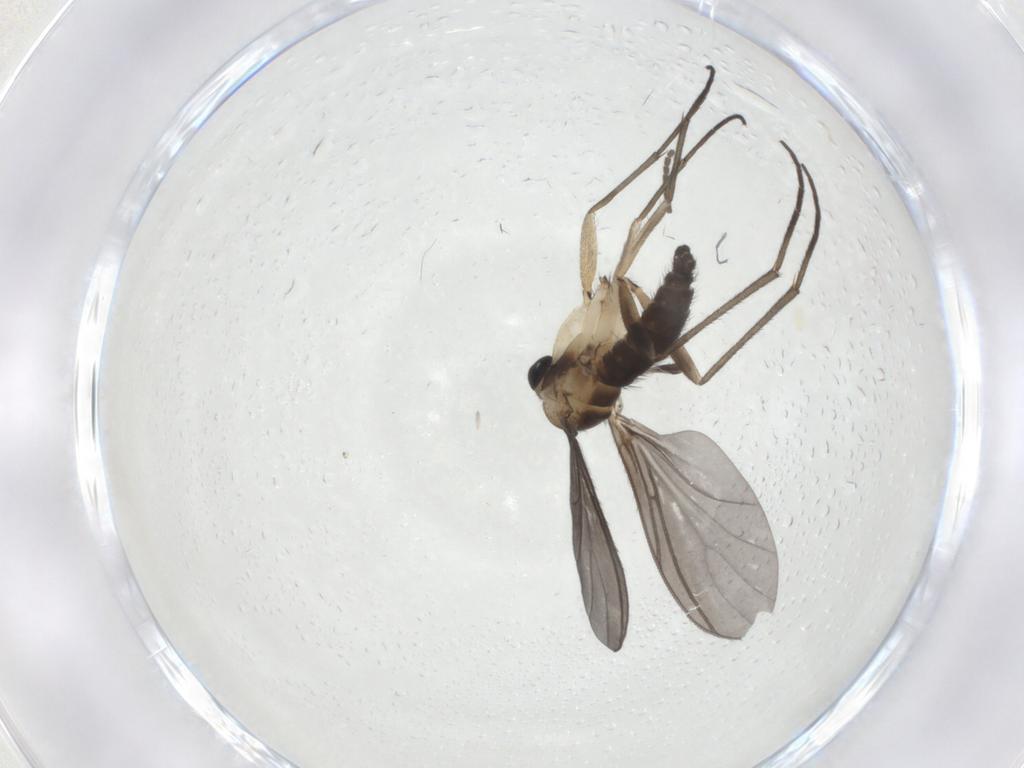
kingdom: Animalia
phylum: Arthropoda
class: Insecta
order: Diptera
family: Sciaridae
